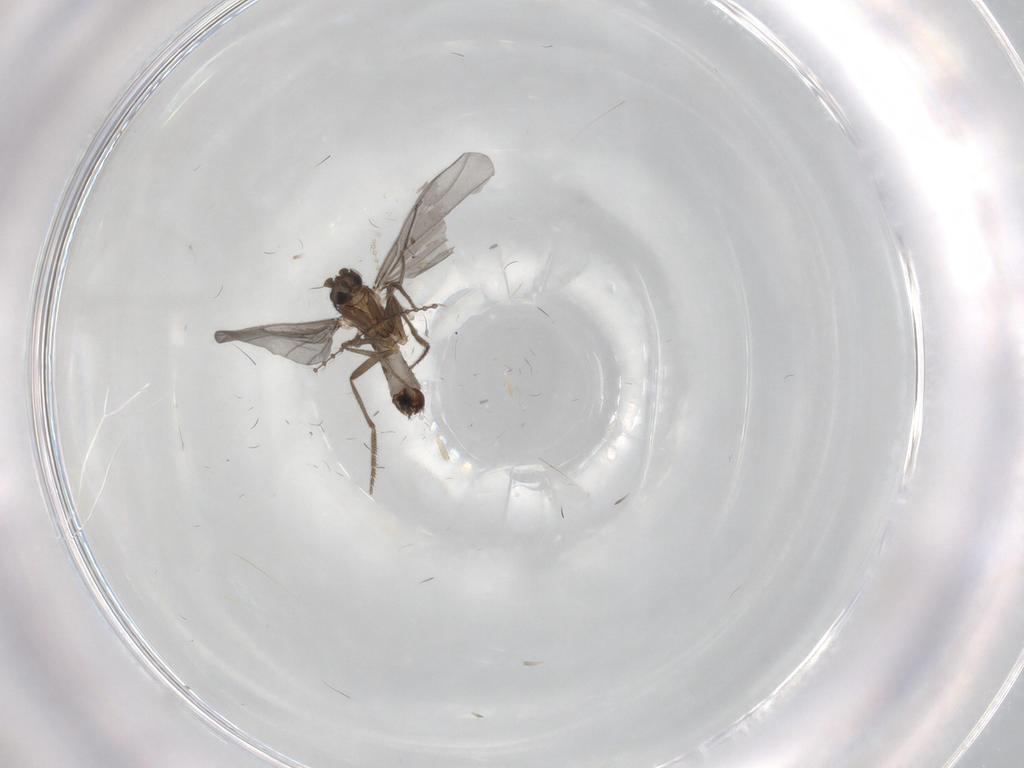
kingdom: Animalia
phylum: Arthropoda
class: Insecta
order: Diptera
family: Phoridae
